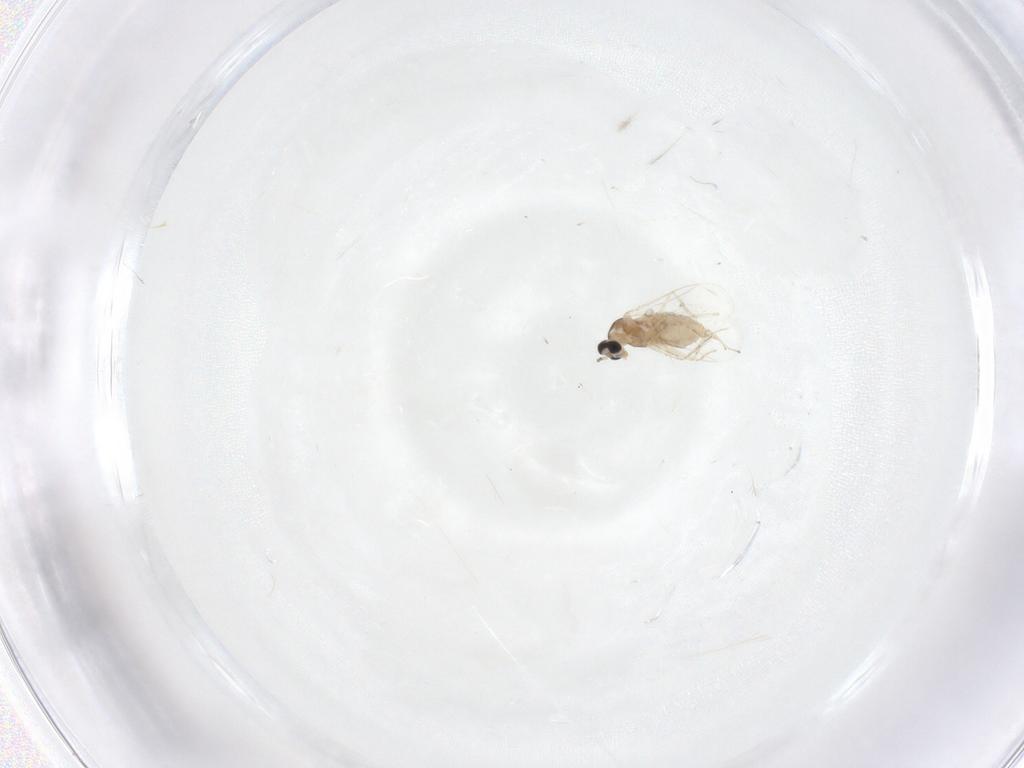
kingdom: Animalia
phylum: Arthropoda
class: Insecta
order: Diptera
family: Cecidomyiidae
